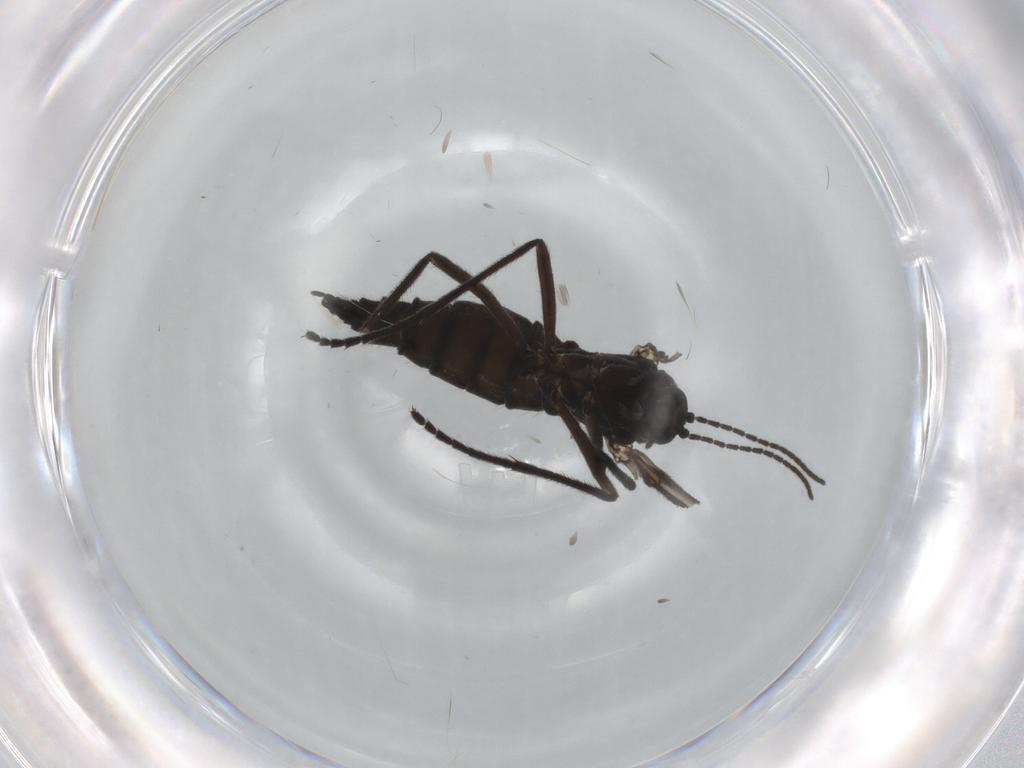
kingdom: Animalia
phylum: Arthropoda
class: Insecta
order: Diptera
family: Sciaridae
